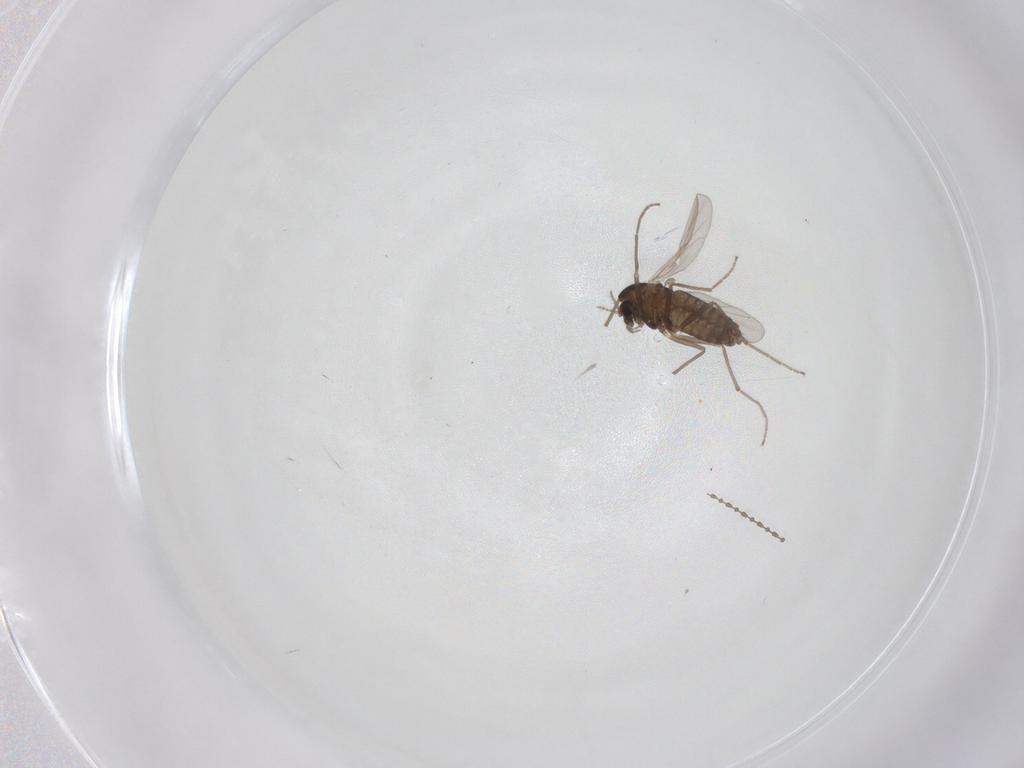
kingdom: Animalia
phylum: Arthropoda
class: Insecta
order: Diptera
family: Chironomidae
